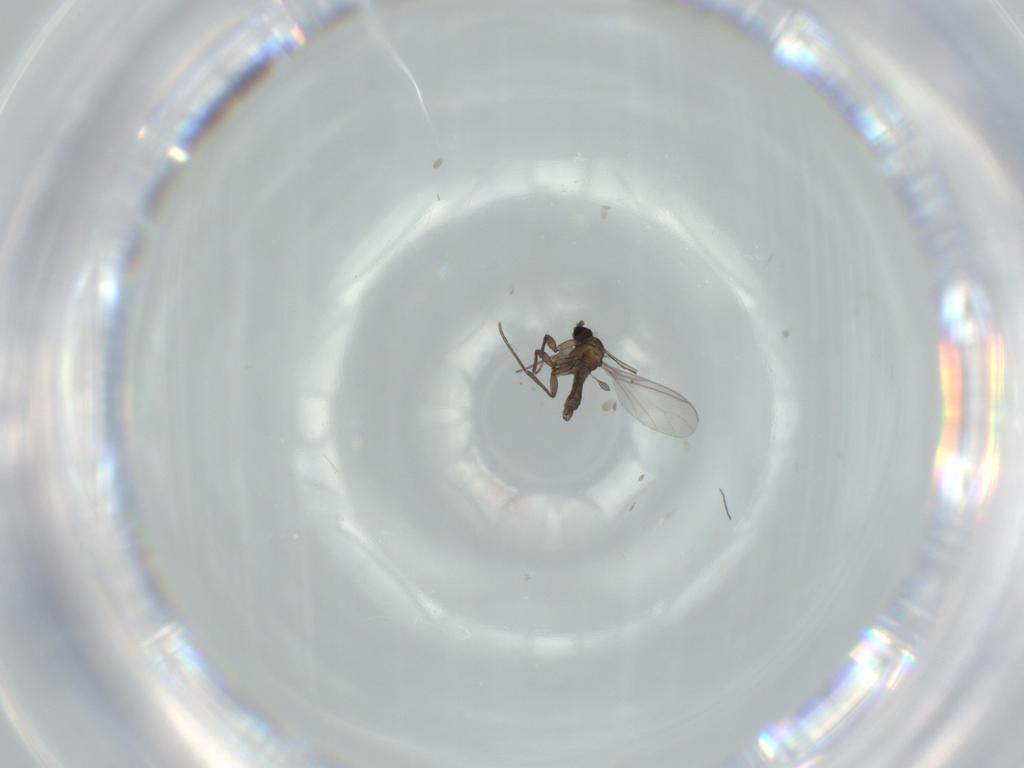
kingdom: Animalia
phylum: Arthropoda
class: Insecta
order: Diptera
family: Sciaridae
